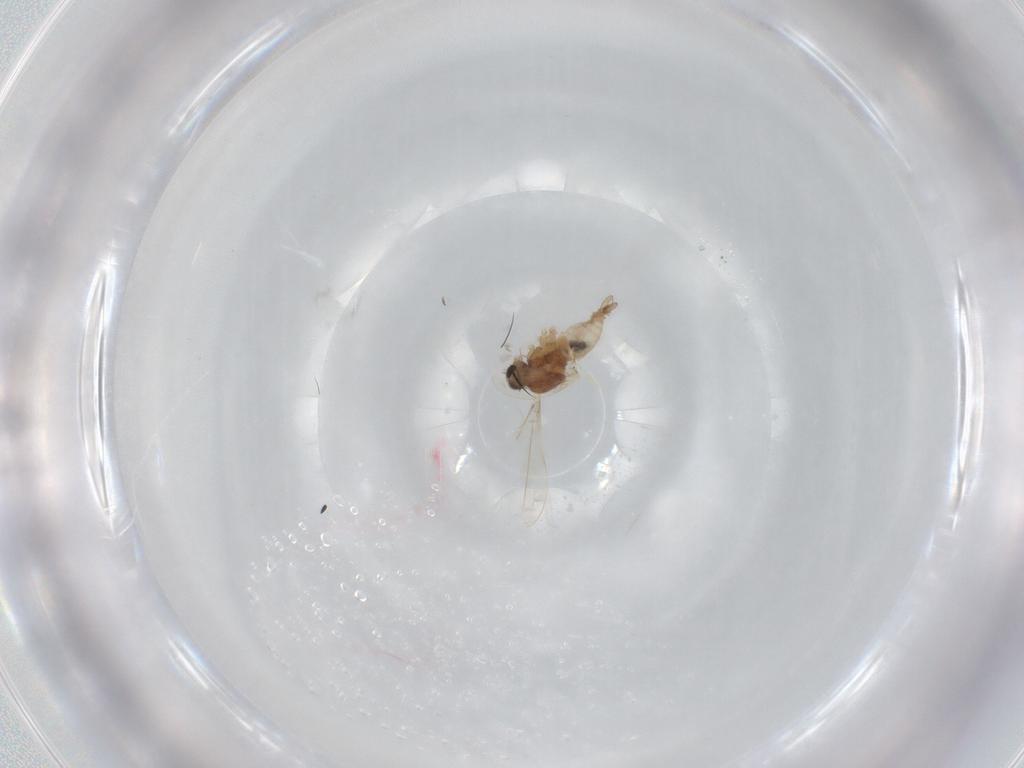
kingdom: Animalia
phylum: Arthropoda
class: Insecta
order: Diptera
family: Cecidomyiidae
